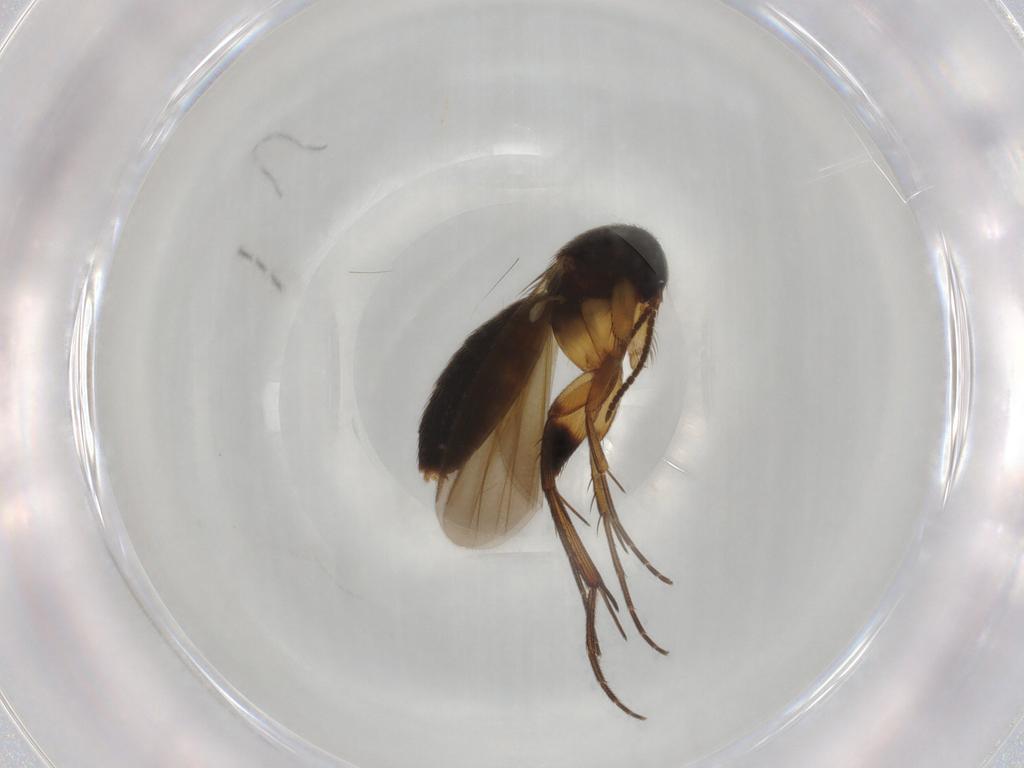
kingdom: Animalia
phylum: Arthropoda
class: Insecta
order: Diptera
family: Polleniidae
